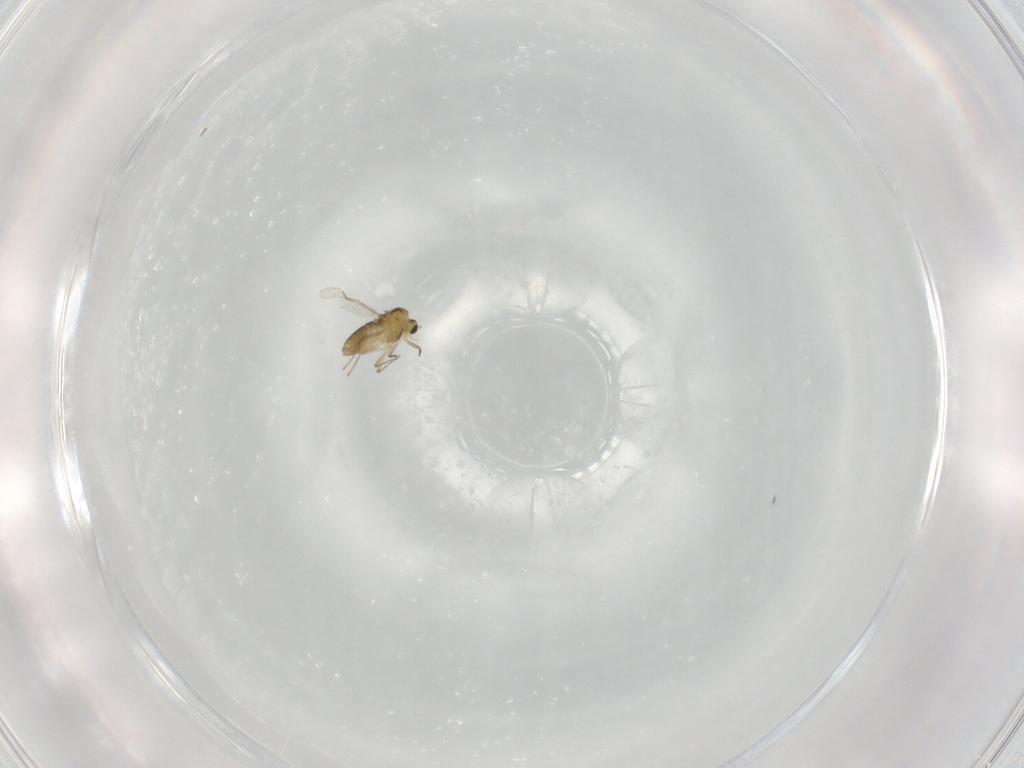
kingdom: Animalia
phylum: Arthropoda
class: Insecta
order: Diptera
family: Chironomidae
